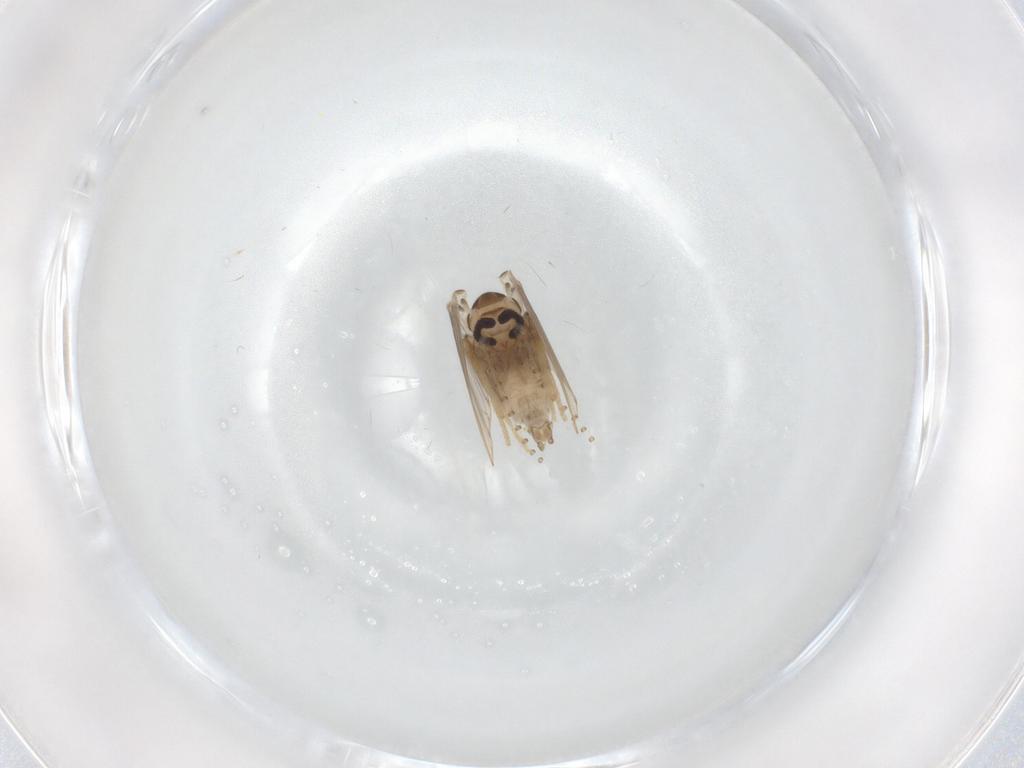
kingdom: Animalia
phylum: Arthropoda
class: Insecta
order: Diptera
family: Psychodidae
